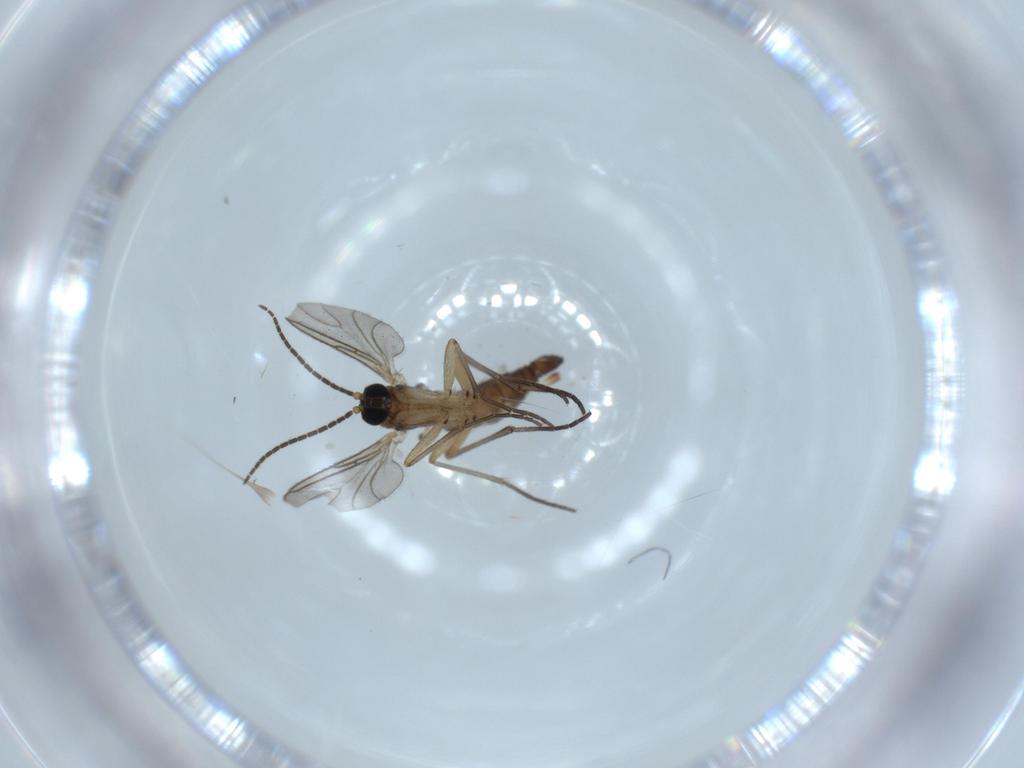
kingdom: Animalia
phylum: Arthropoda
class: Insecta
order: Diptera
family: Sciaridae
